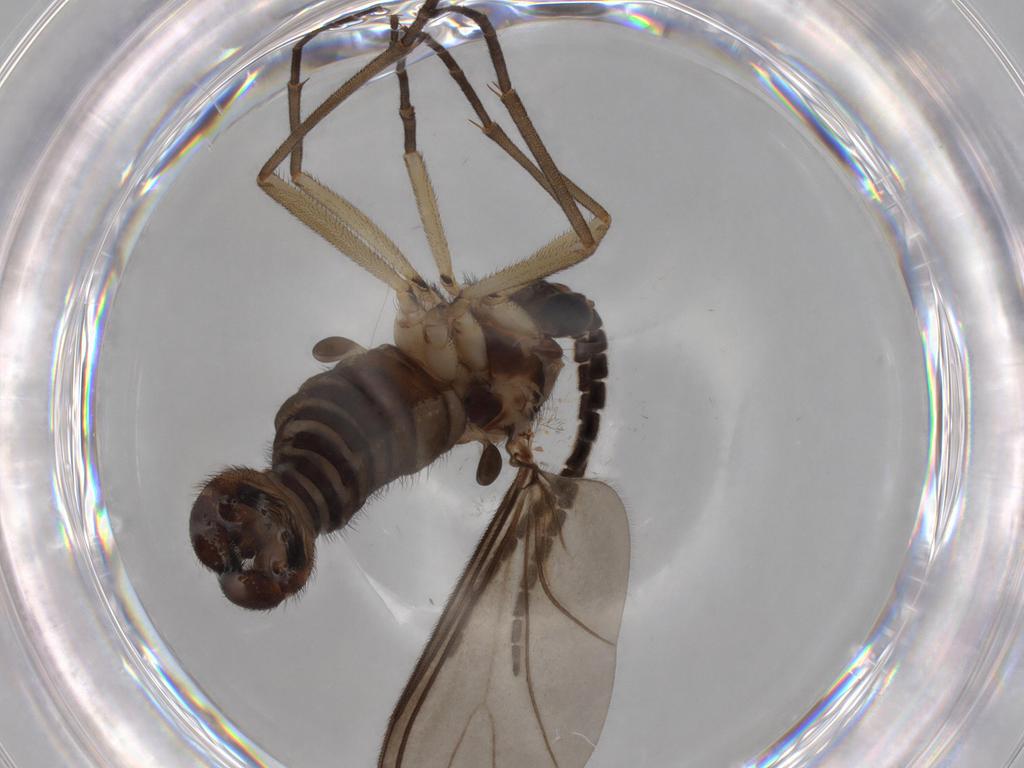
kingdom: Animalia
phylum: Arthropoda
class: Insecta
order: Diptera
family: Sciaridae
